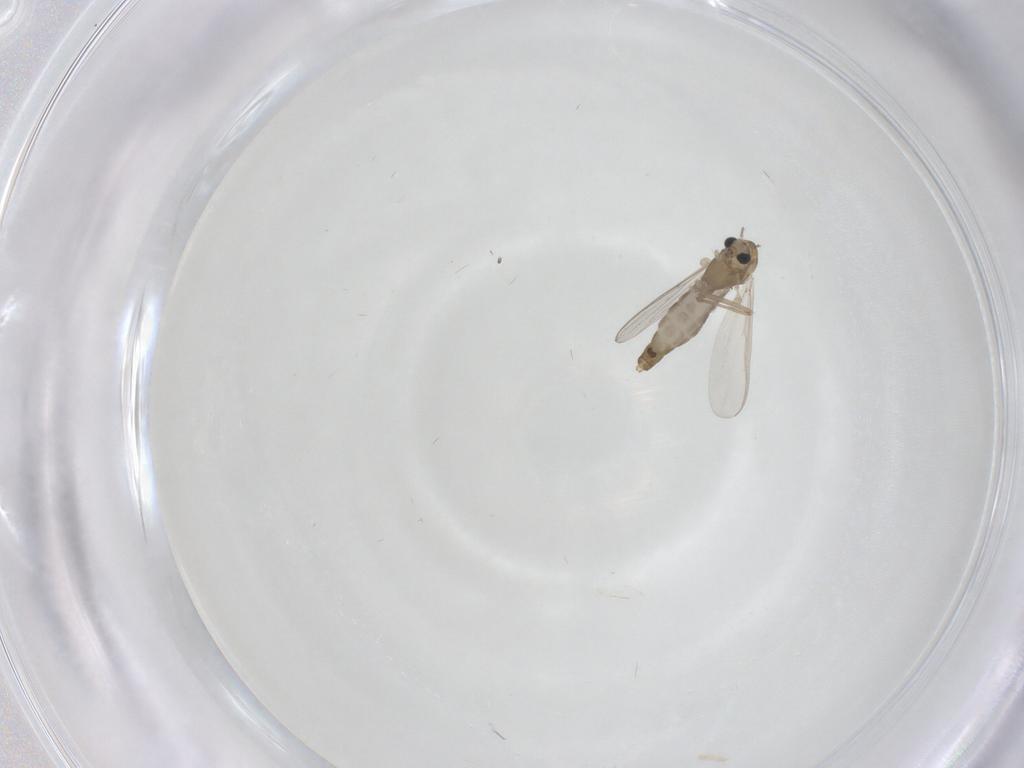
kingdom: Animalia
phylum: Arthropoda
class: Insecta
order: Diptera
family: Chironomidae
